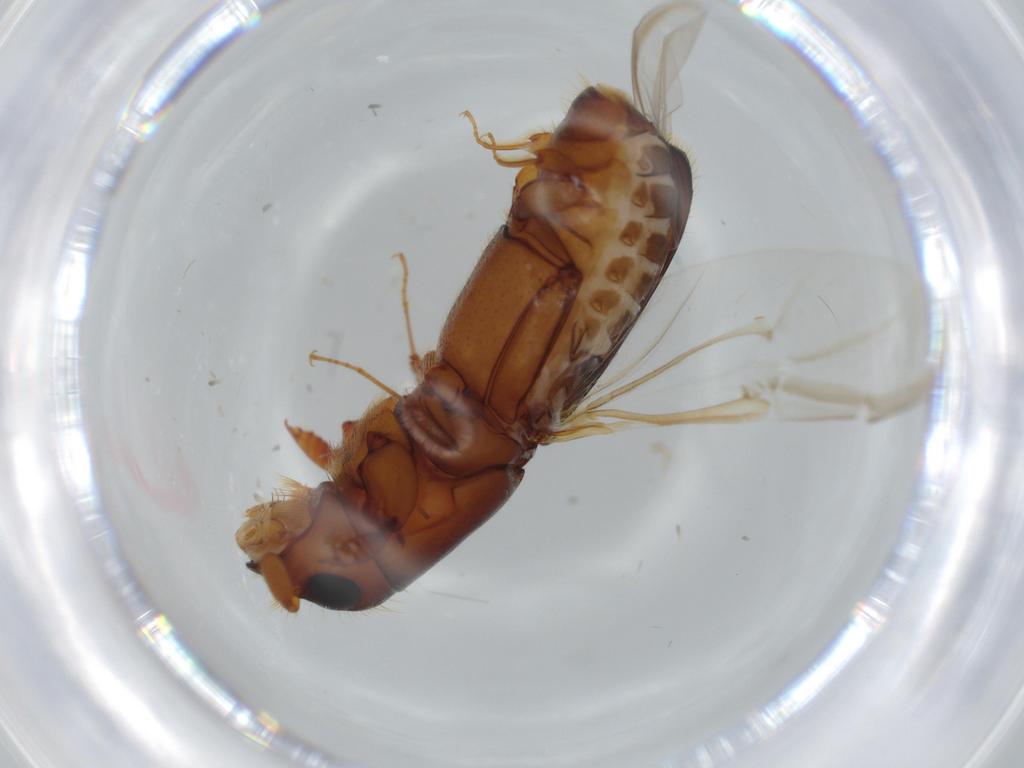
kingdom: Animalia
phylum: Arthropoda
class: Insecta
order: Coleoptera
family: Curculionidae
